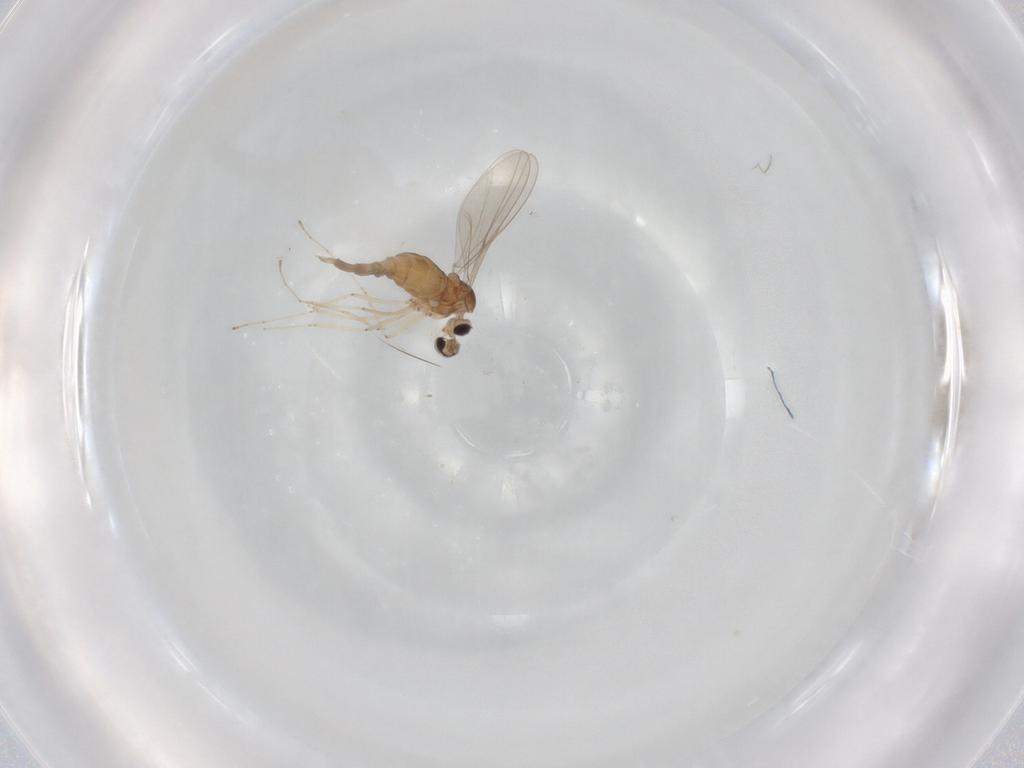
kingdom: Animalia
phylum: Arthropoda
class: Insecta
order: Diptera
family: Cecidomyiidae
